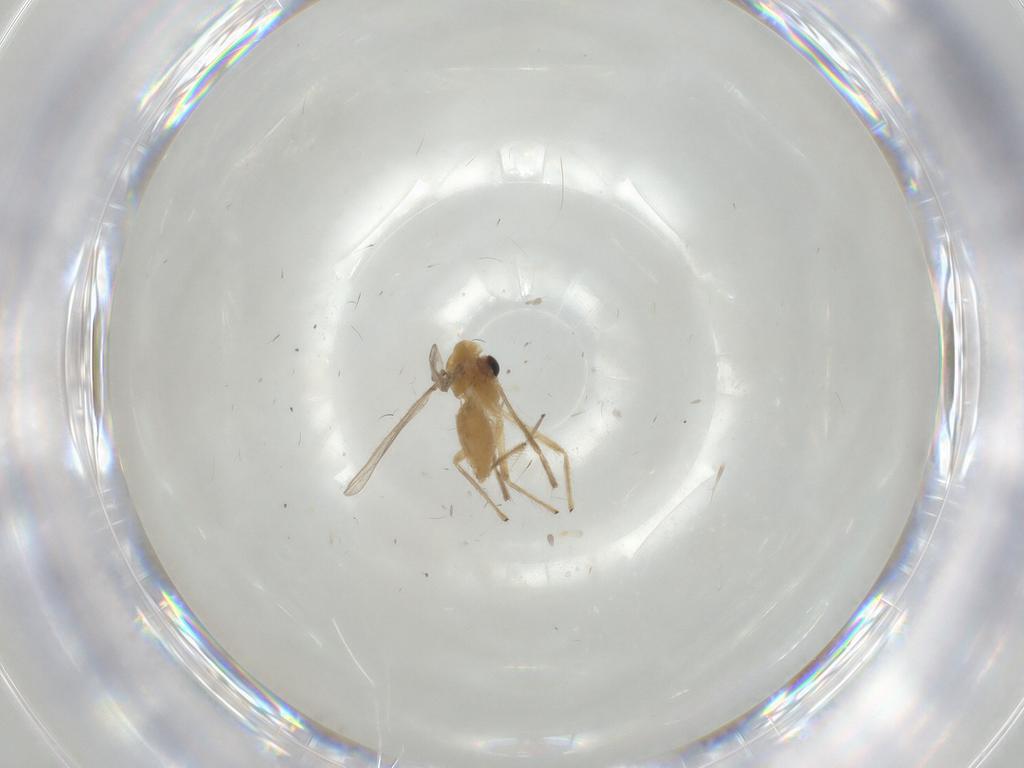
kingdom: Animalia
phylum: Arthropoda
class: Insecta
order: Diptera
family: Chironomidae
